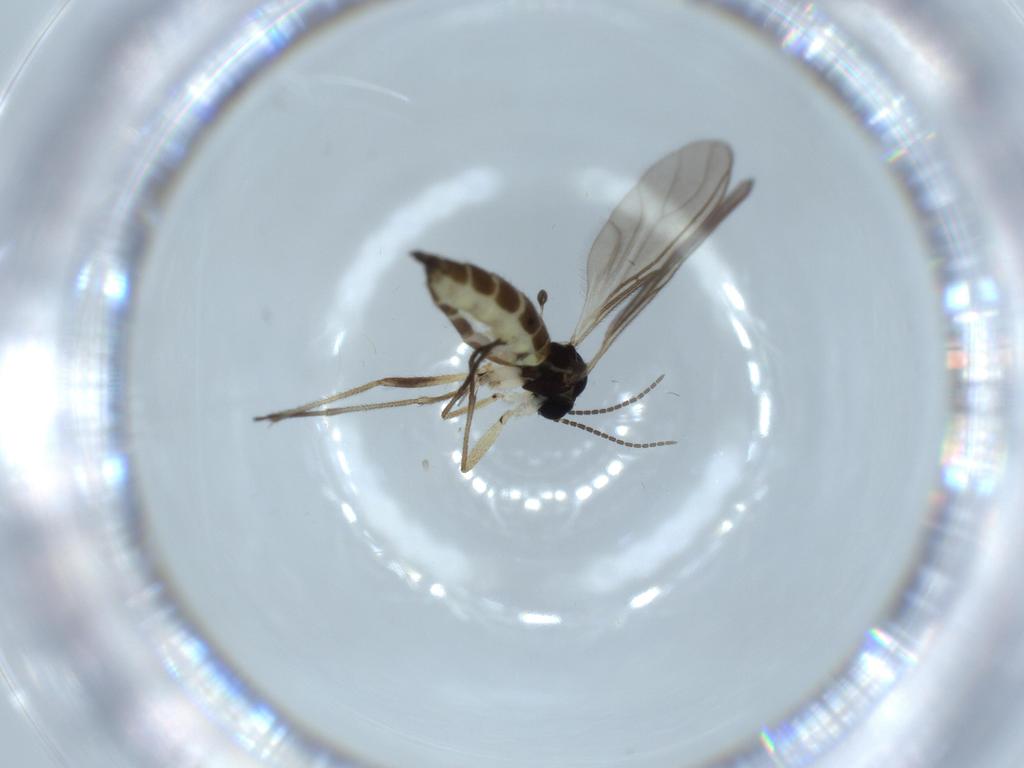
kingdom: Animalia
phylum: Arthropoda
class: Insecta
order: Diptera
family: Sciaridae
